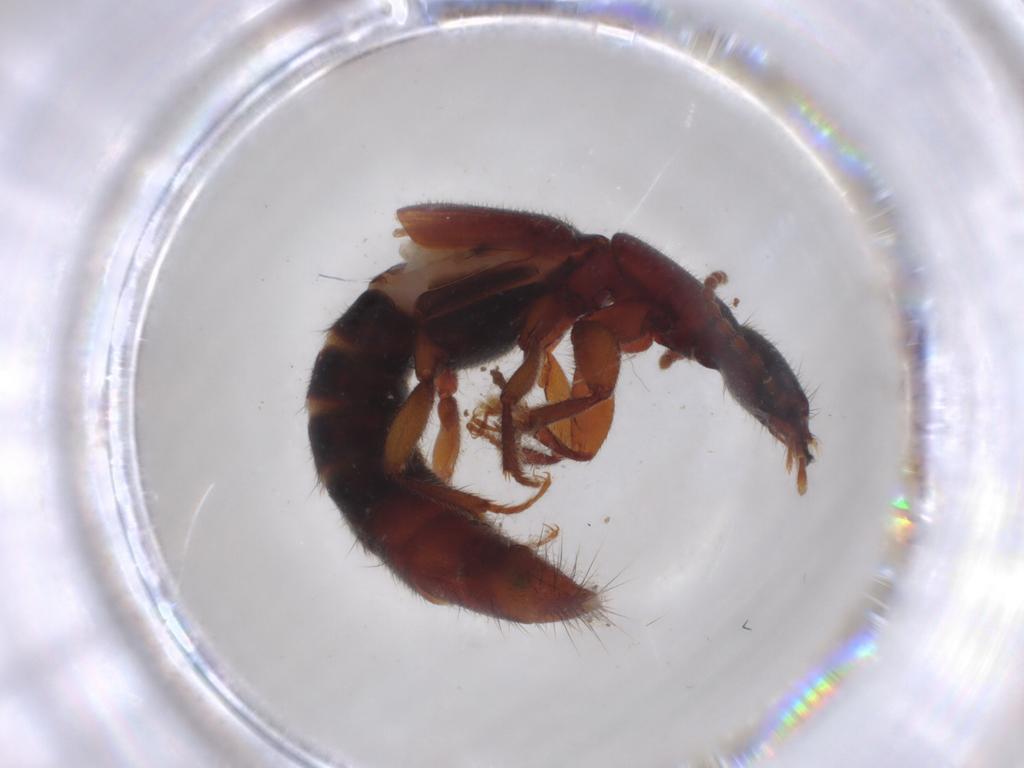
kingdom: Animalia
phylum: Arthropoda
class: Insecta
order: Coleoptera
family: Staphylinidae
